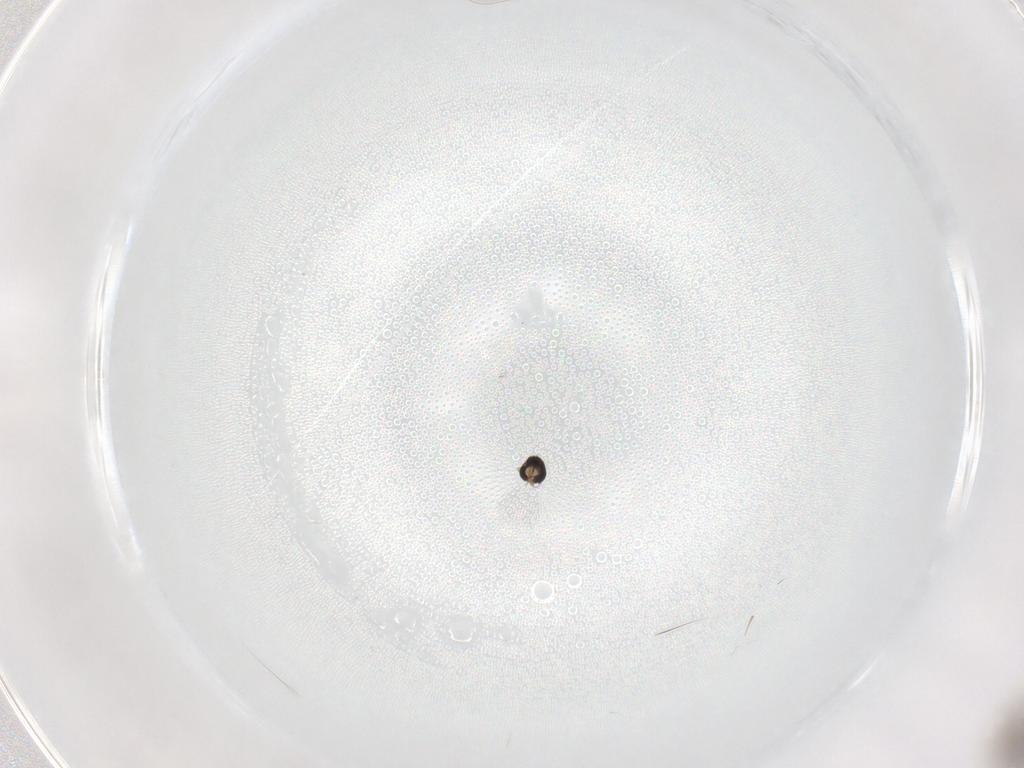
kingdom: Animalia
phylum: Arthropoda
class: Insecta
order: Diptera
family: Cecidomyiidae
